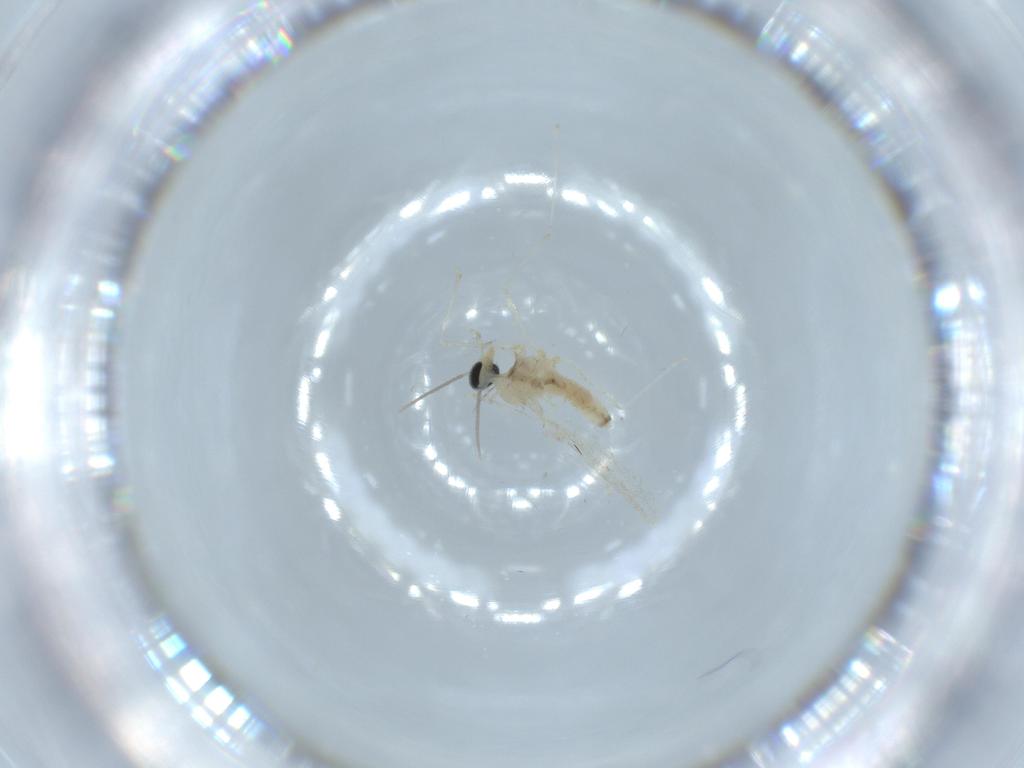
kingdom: Animalia
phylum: Arthropoda
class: Insecta
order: Diptera
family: Cecidomyiidae
